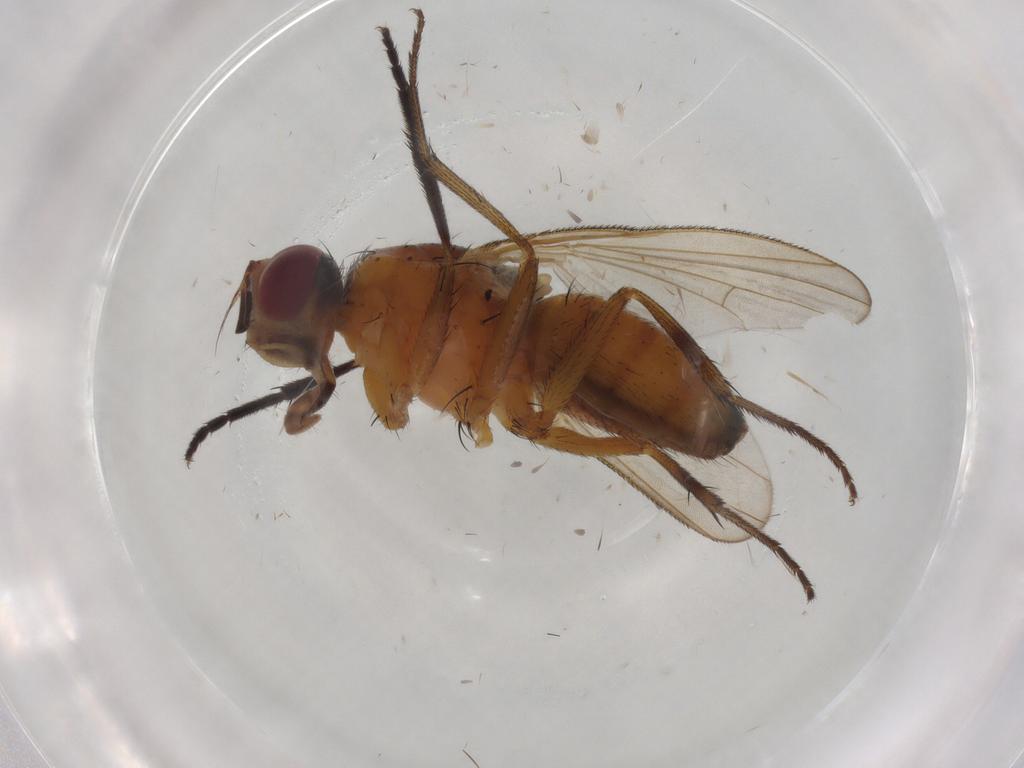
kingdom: Animalia
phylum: Arthropoda
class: Insecta
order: Diptera
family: Muscidae
